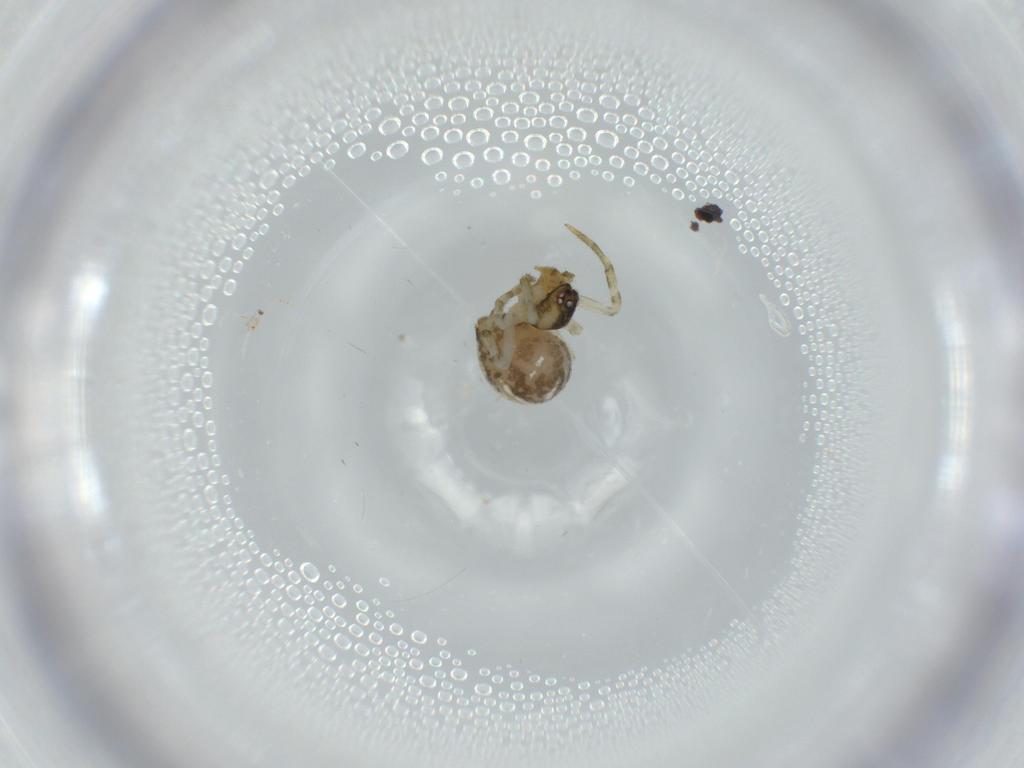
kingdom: Animalia
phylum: Arthropoda
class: Arachnida
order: Araneae
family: Theridiidae
